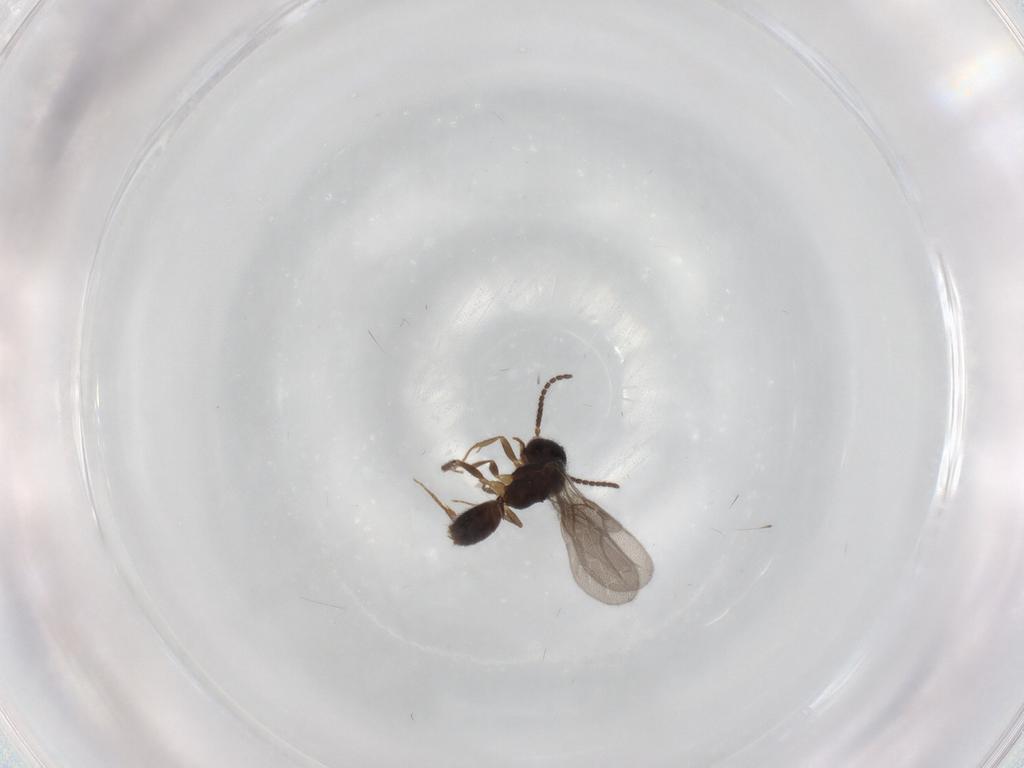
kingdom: Animalia
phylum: Arthropoda
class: Insecta
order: Hymenoptera
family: Bethylidae
